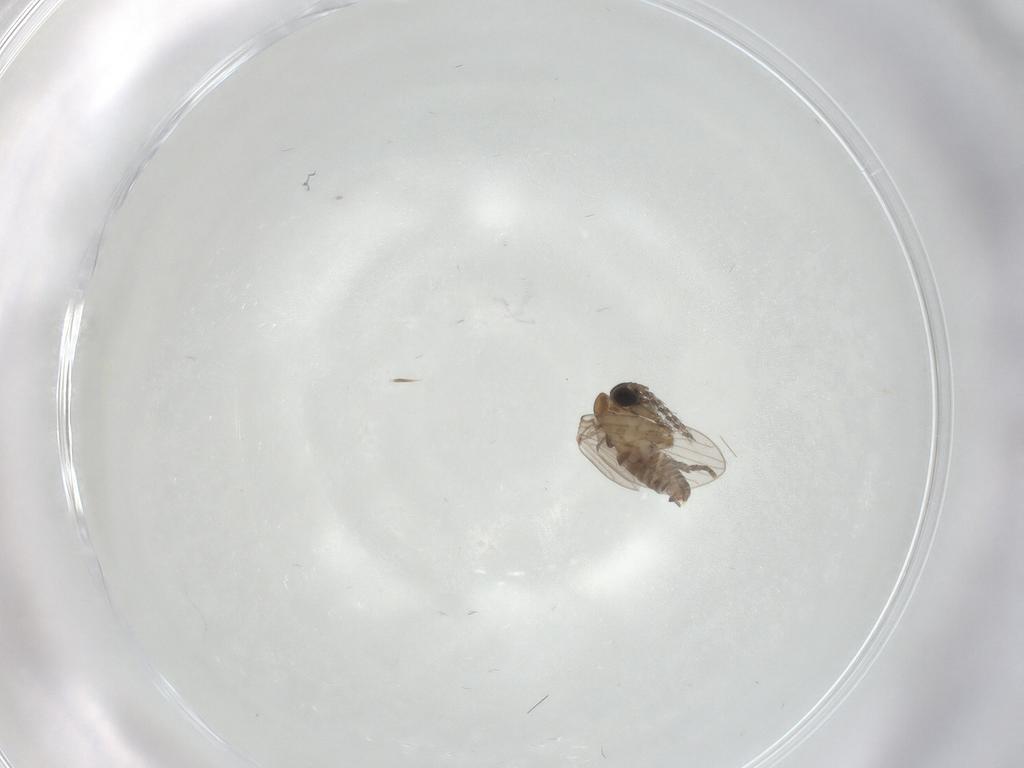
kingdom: Animalia
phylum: Arthropoda
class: Insecta
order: Diptera
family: Psychodidae
